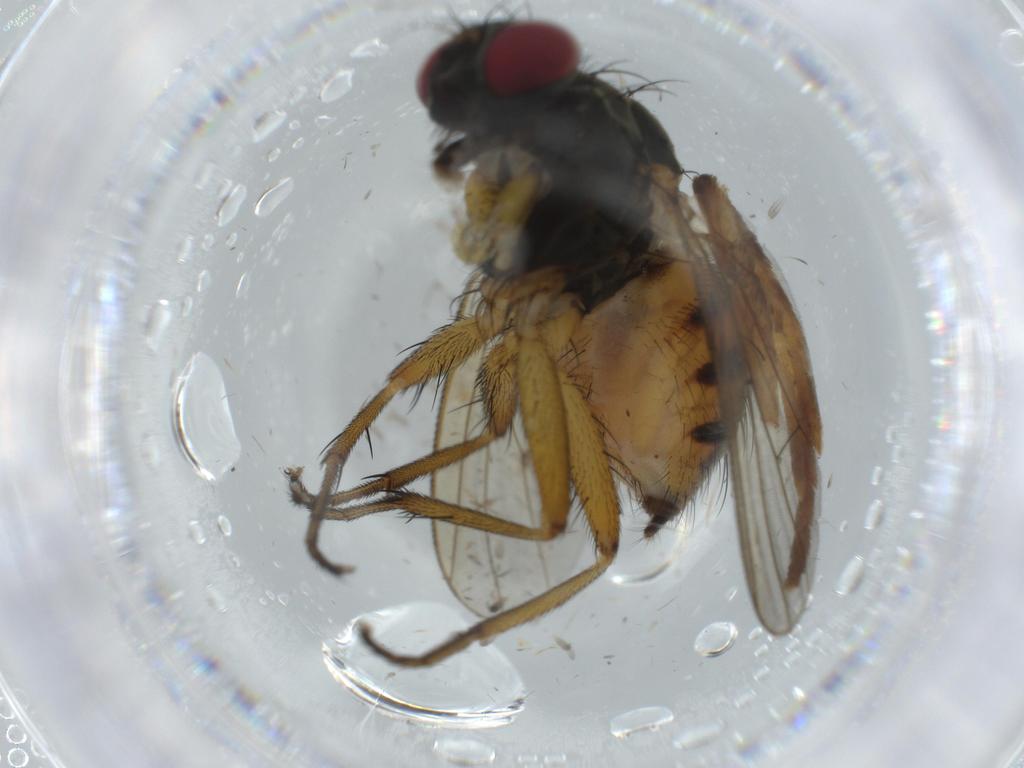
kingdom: Animalia
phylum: Arthropoda
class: Insecta
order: Diptera
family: Muscidae
